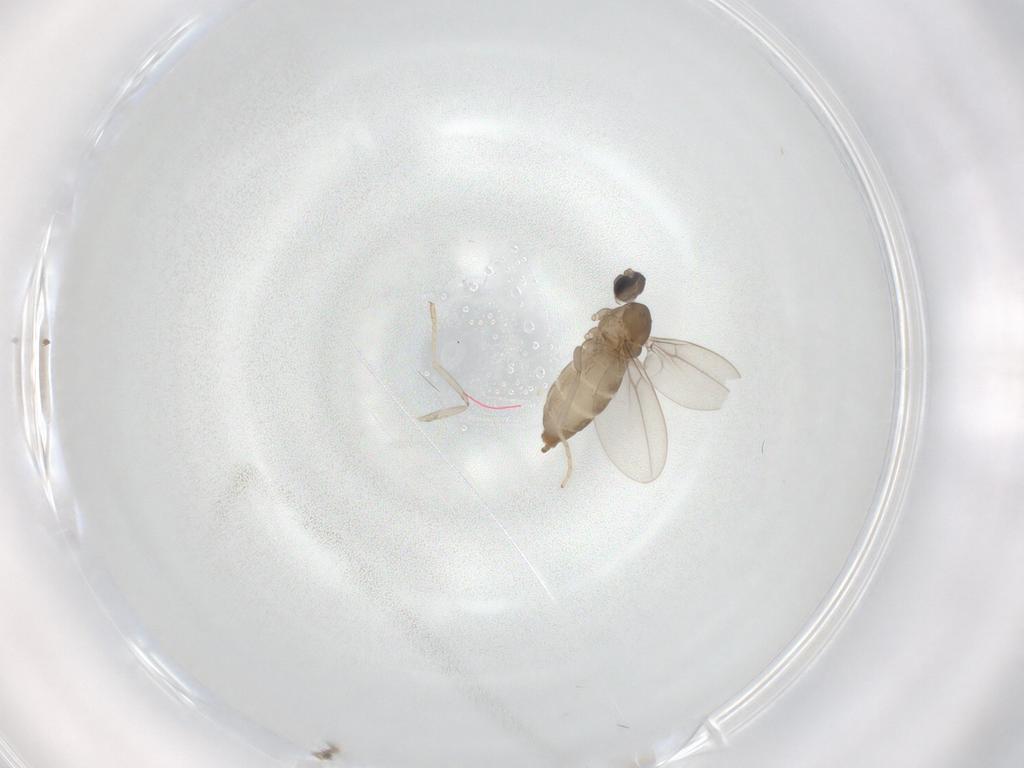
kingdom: Animalia
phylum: Arthropoda
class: Insecta
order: Diptera
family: Cecidomyiidae
